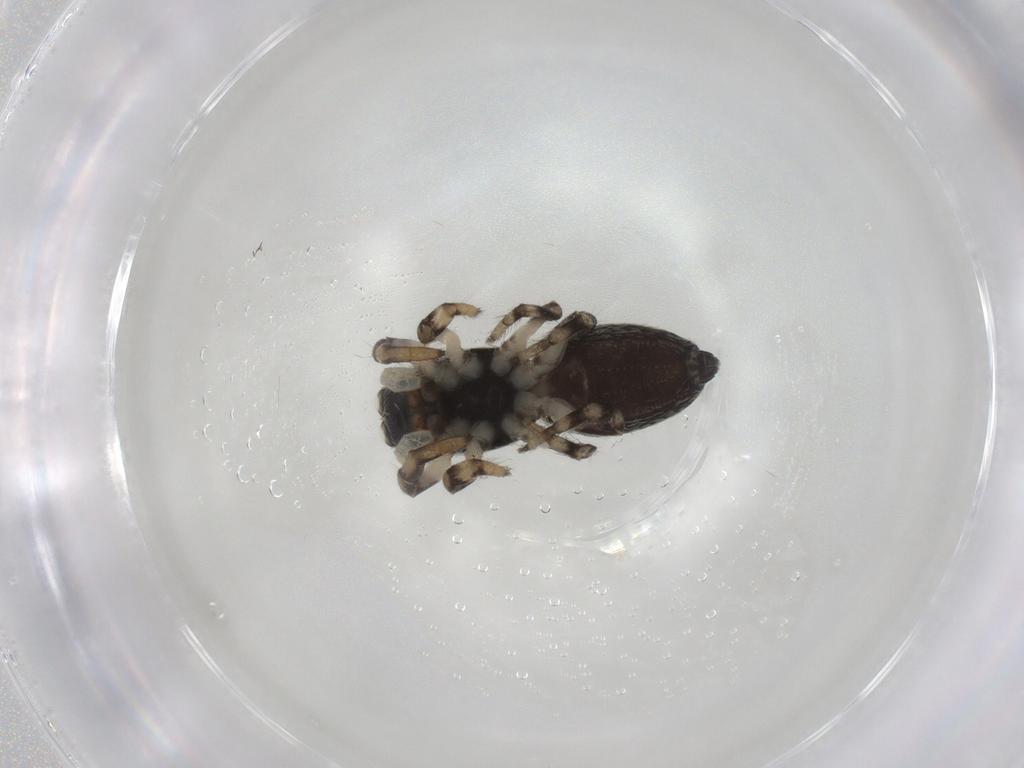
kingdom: Animalia
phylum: Arthropoda
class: Arachnida
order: Araneae
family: Salticidae
